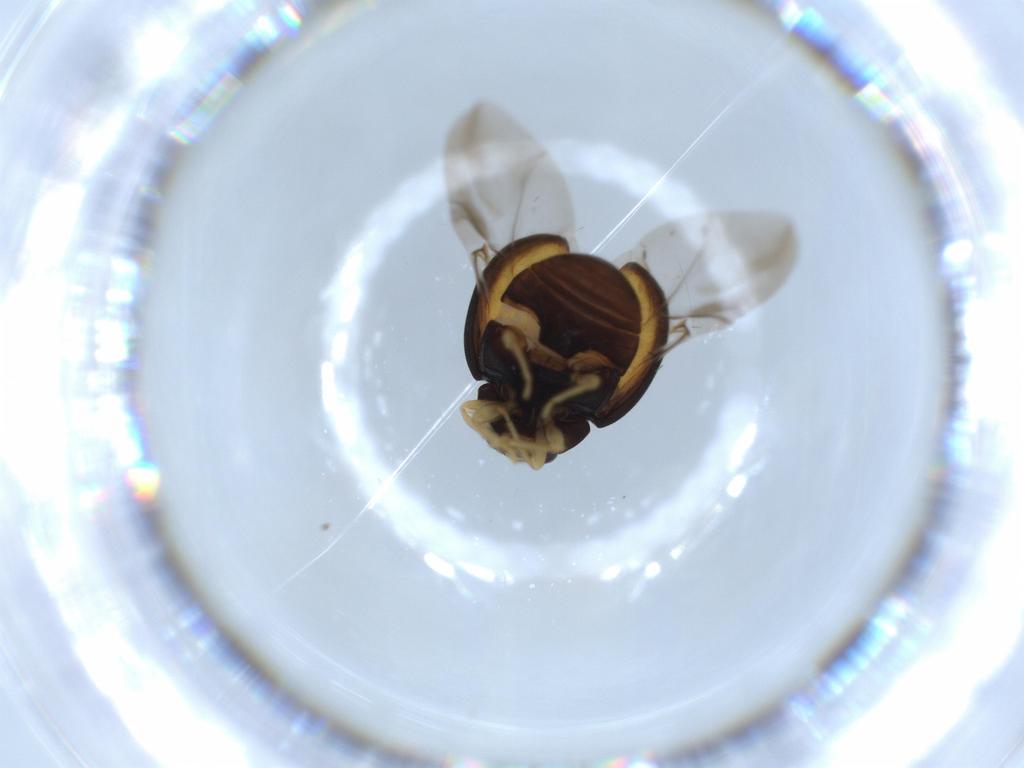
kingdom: Animalia
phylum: Arthropoda
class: Insecta
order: Coleoptera
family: Coccinellidae
